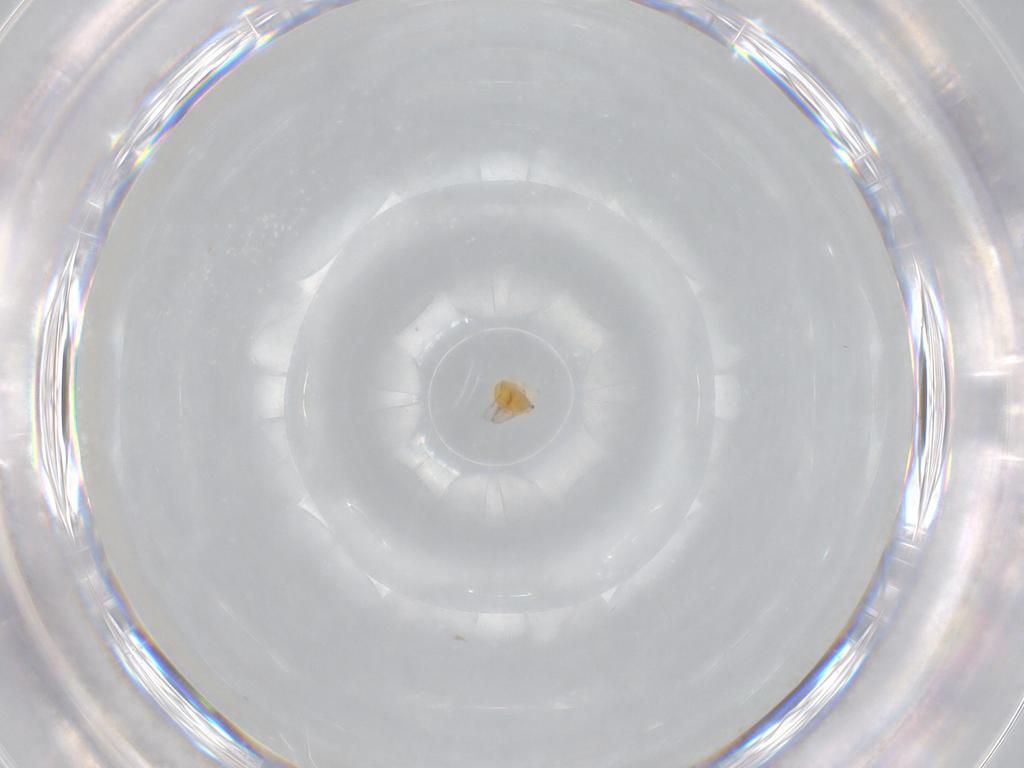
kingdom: Animalia
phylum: Arthropoda
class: Insecta
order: Hymenoptera
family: Aphelinidae
